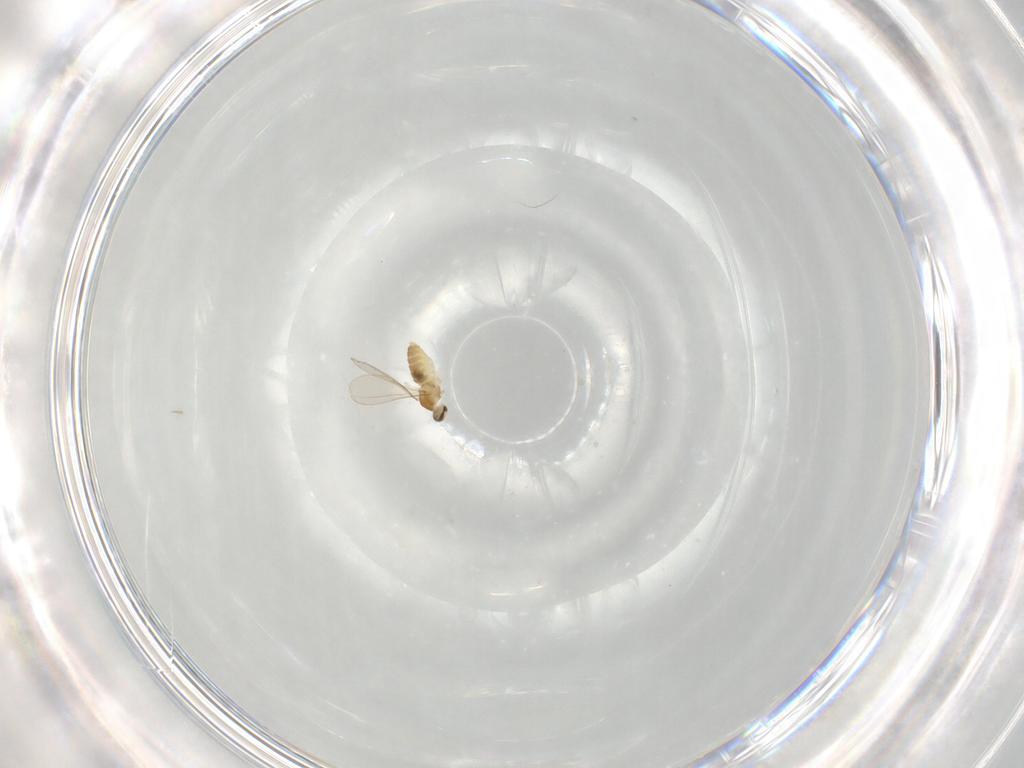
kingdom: Animalia
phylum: Arthropoda
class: Insecta
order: Diptera
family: Cecidomyiidae
